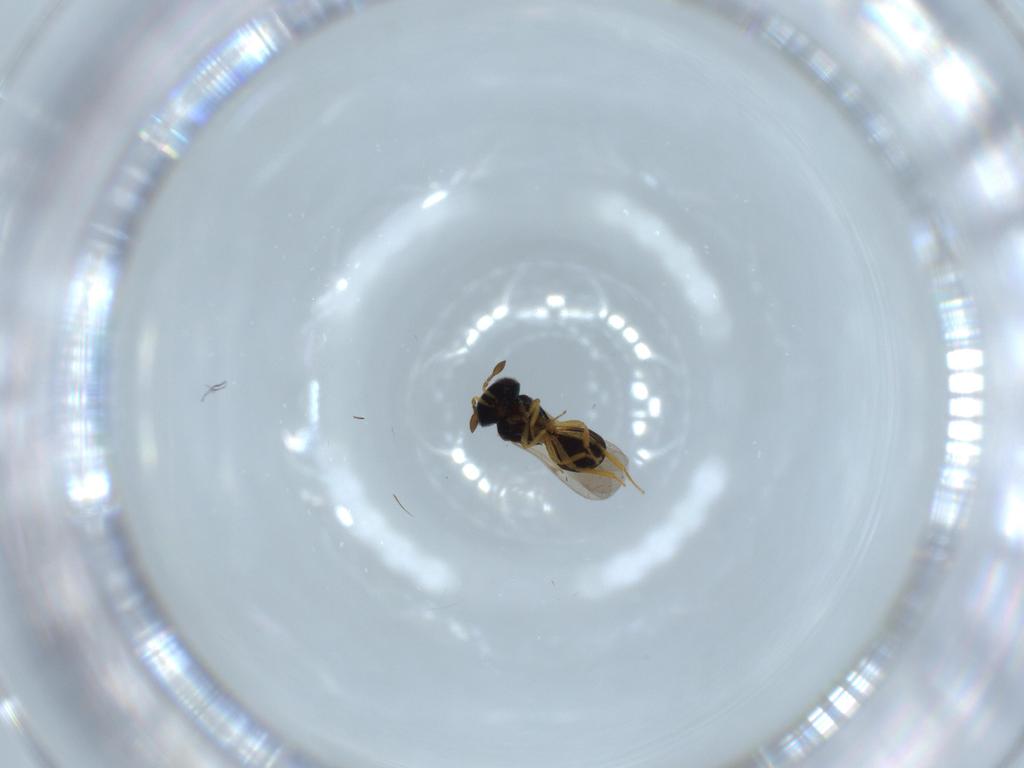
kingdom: Animalia
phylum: Arthropoda
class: Insecta
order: Hymenoptera
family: Scelionidae
